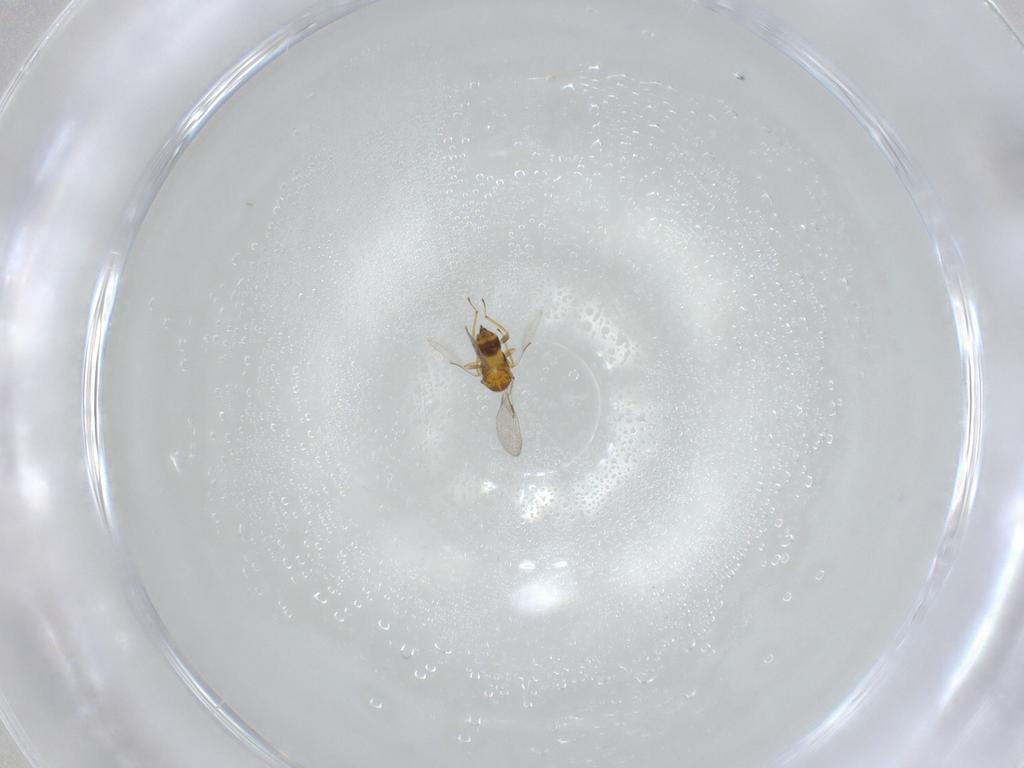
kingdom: Animalia
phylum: Arthropoda
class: Insecta
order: Hymenoptera
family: Trichogrammatidae
